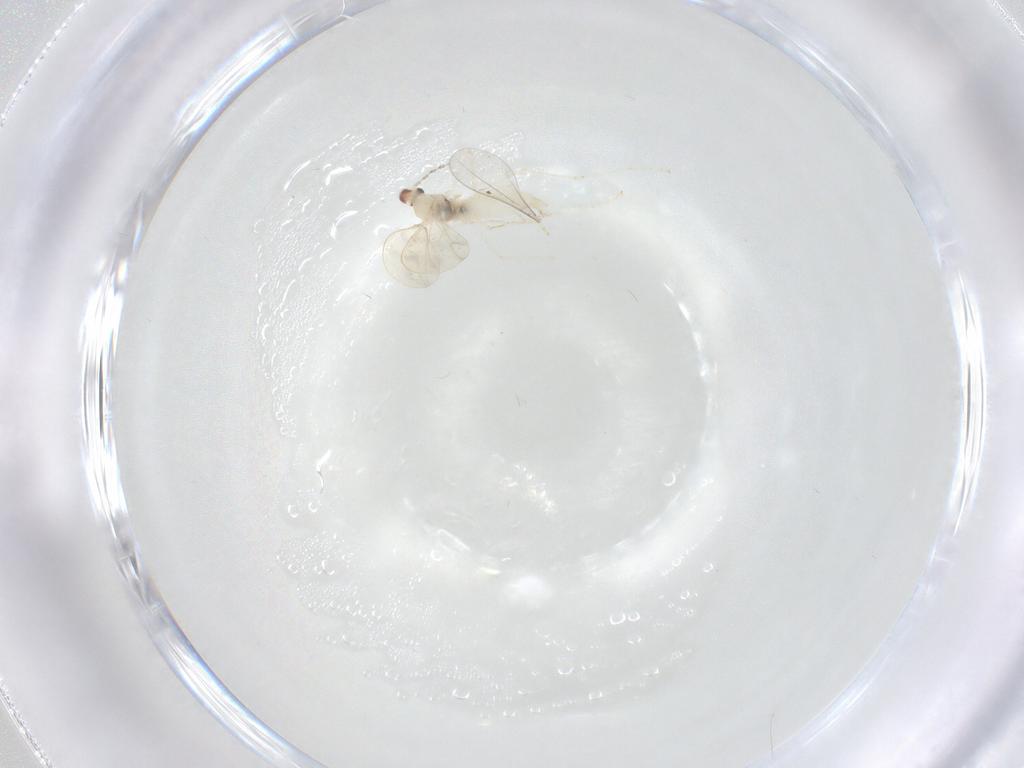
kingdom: Animalia
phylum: Arthropoda
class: Insecta
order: Diptera
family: Cecidomyiidae
